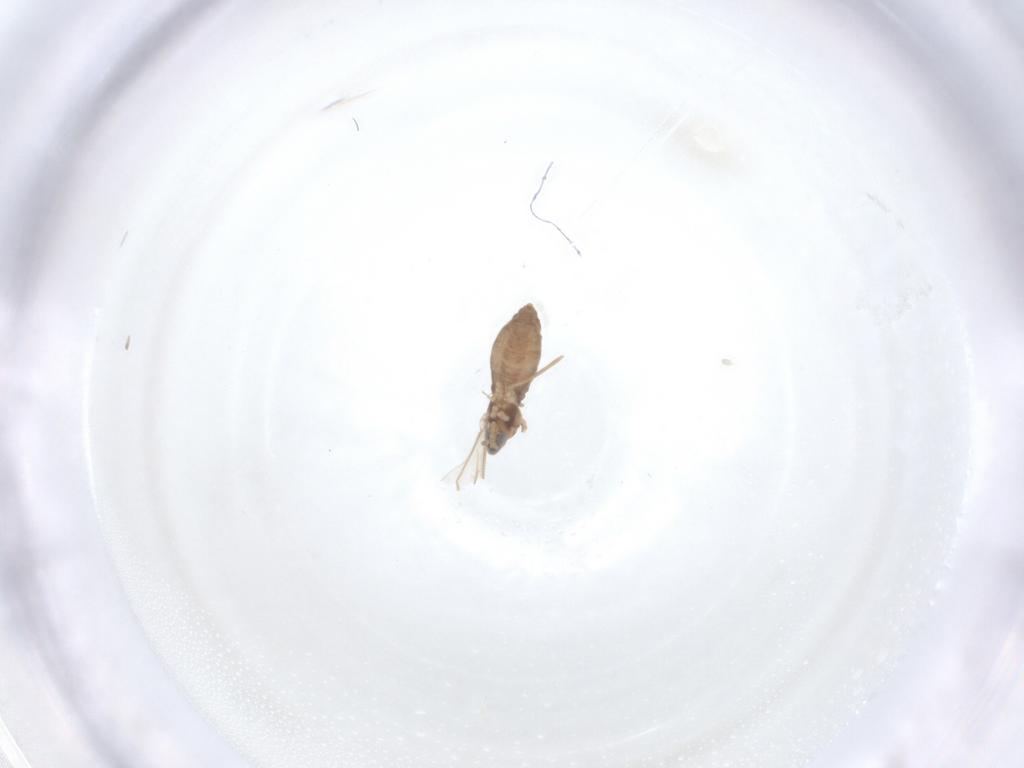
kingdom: Animalia
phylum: Arthropoda
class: Insecta
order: Diptera
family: Cecidomyiidae
